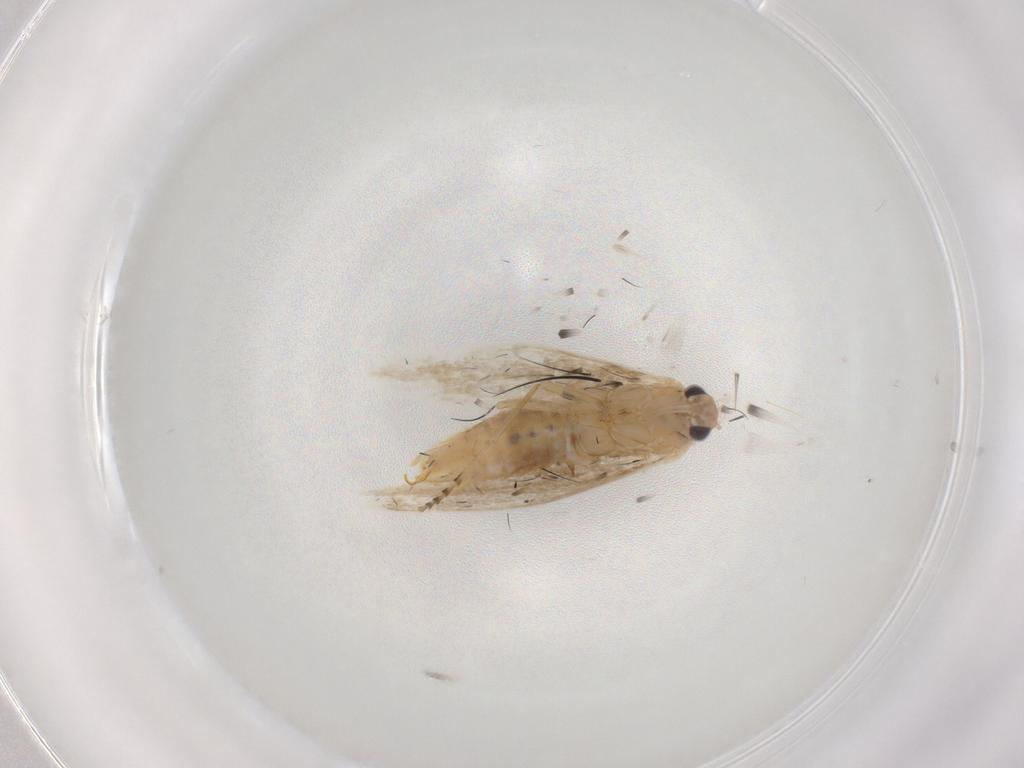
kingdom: Animalia
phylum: Arthropoda
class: Insecta
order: Lepidoptera
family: Bucculatricidae
